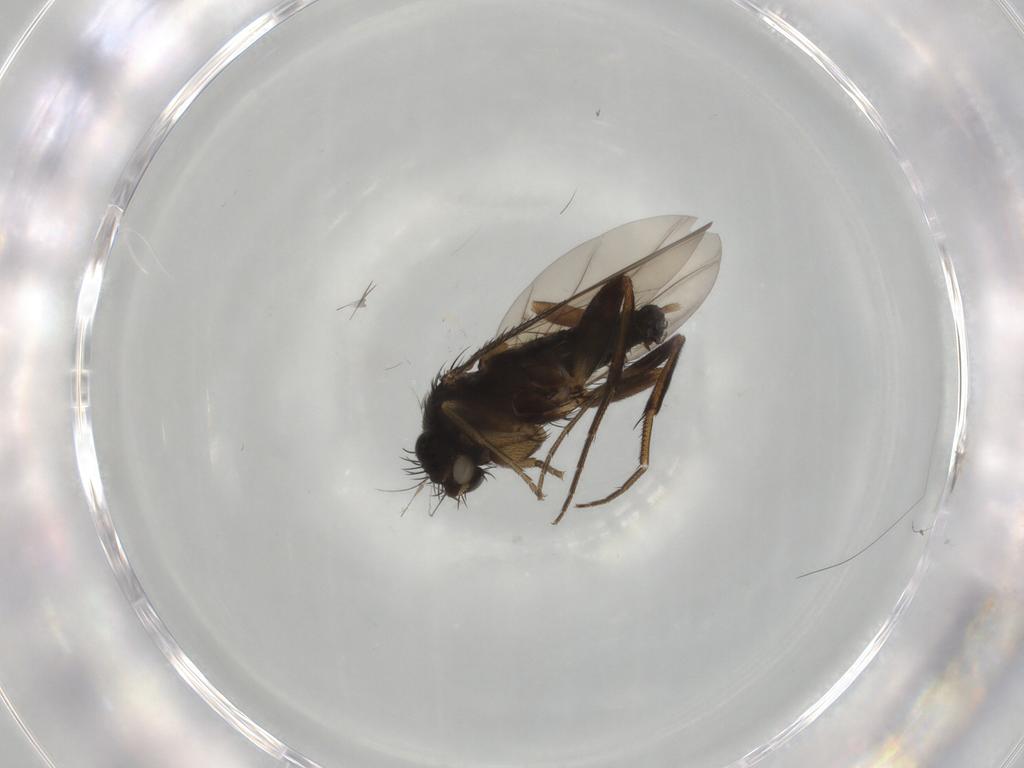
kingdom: Animalia
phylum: Arthropoda
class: Insecta
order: Diptera
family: Phoridae
